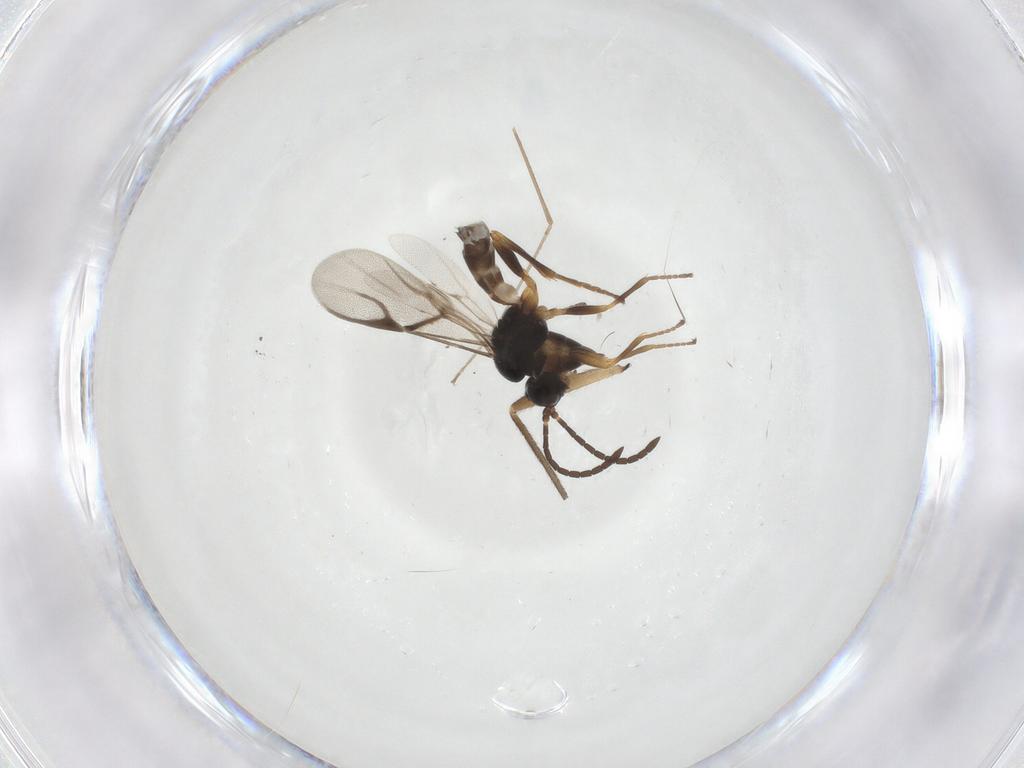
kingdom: Animalia
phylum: Arthropoda
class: Insecta
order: Hymenoptera
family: Braconidae
